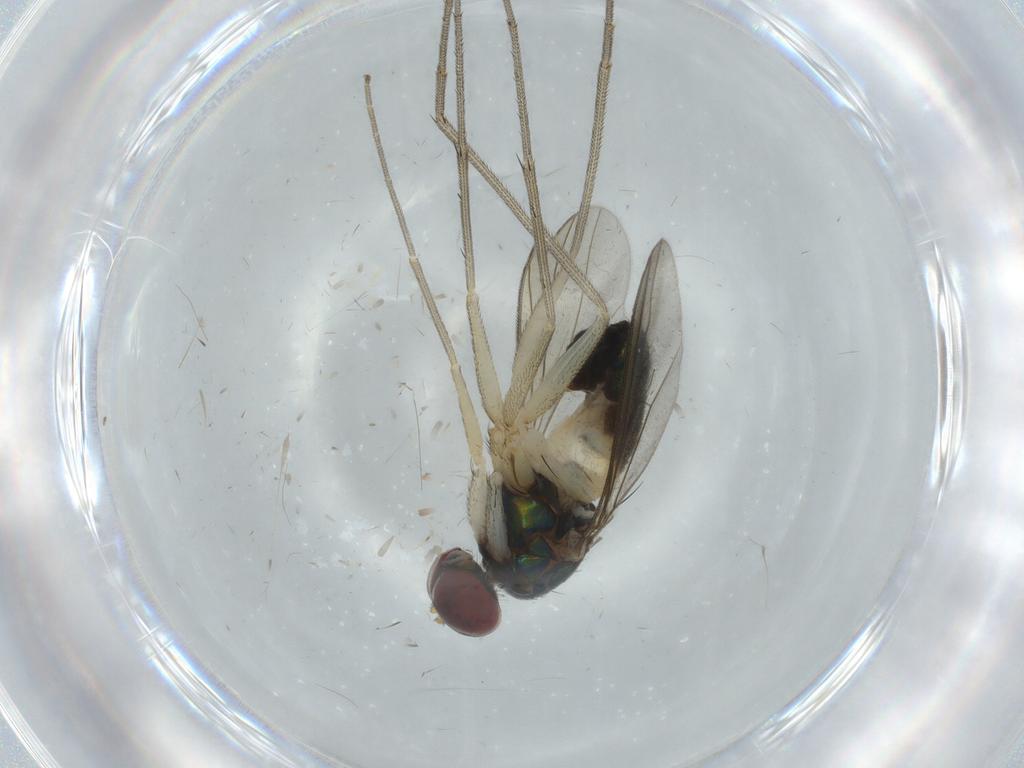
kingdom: Animalia
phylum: Arthropoda
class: Insecta
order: Diptera
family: Dolichopodidae
